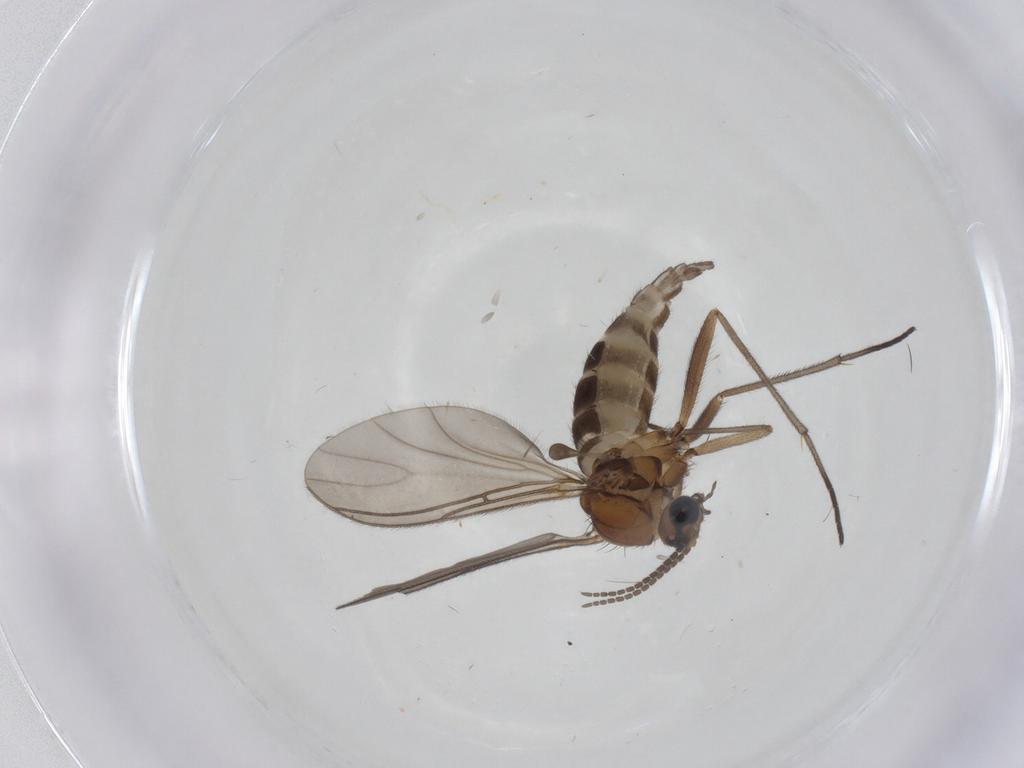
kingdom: Animalia
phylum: Arthropoda
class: Insecta
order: Diptera
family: Sciaridae
